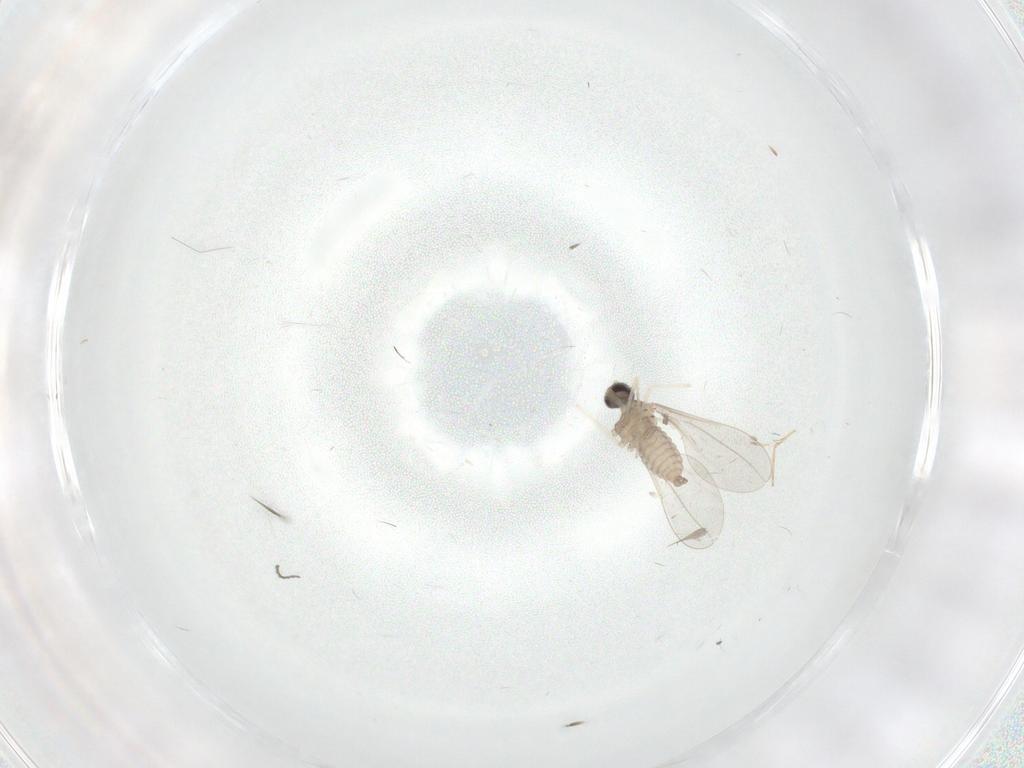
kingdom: Animalia
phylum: Arthropoda
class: Insecta
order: Diptera
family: Cecidomyiidae
